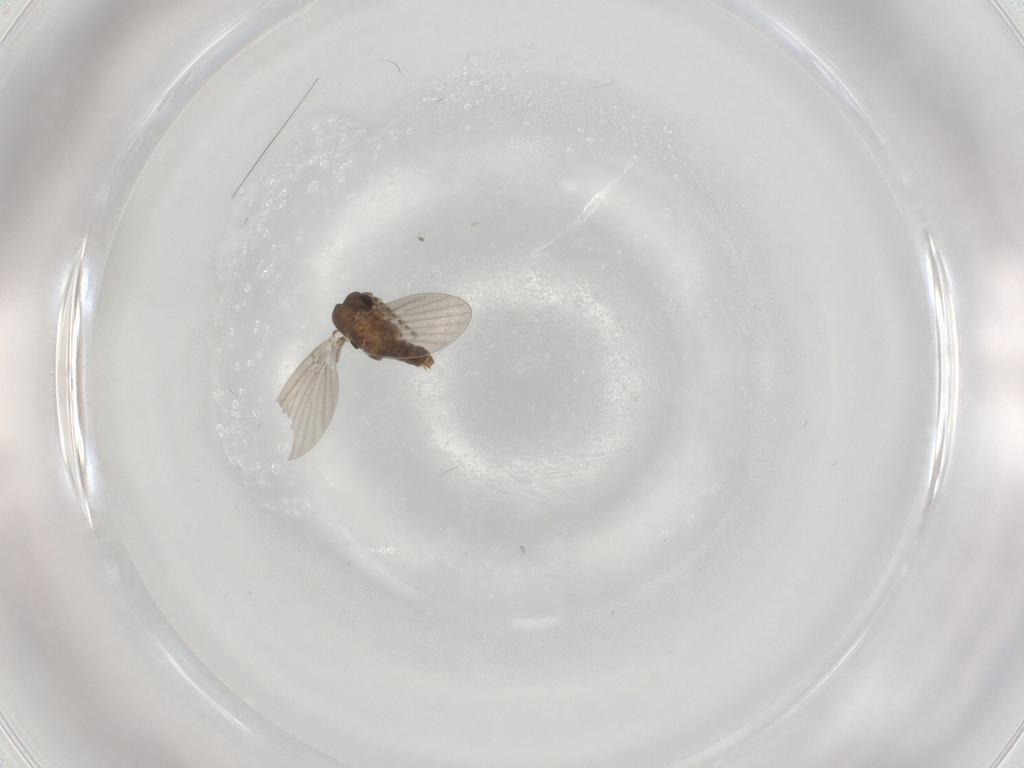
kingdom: Animalia
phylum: Arthropoda
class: Insecta
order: Diptera
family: Psychodidae
